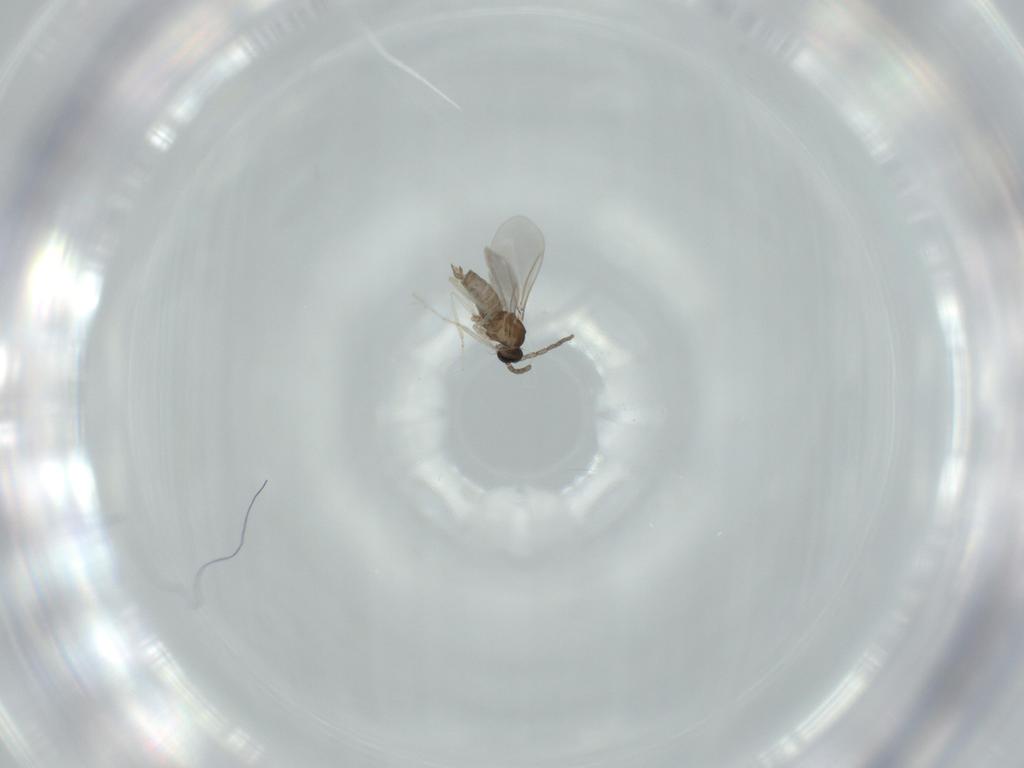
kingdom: Animalia
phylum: Arthropoda
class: Insecta
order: Diptera
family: Cecidomyiidae
